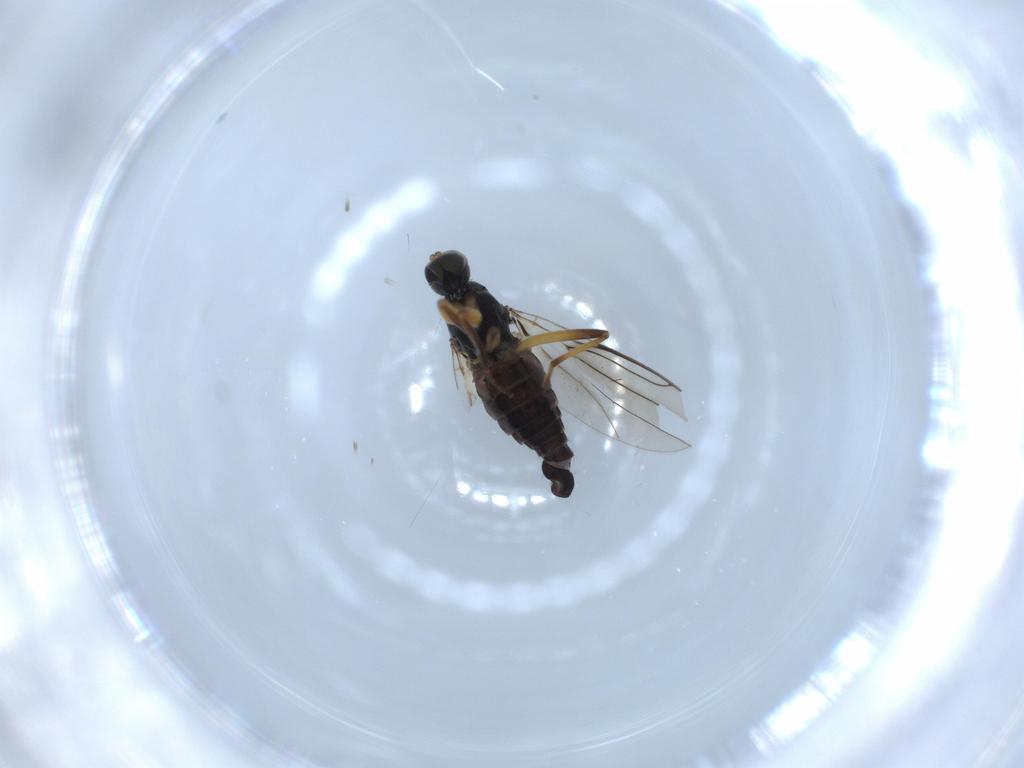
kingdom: Animalia
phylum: Arthropoda
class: Insecta
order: Diptera
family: Hybotidae
